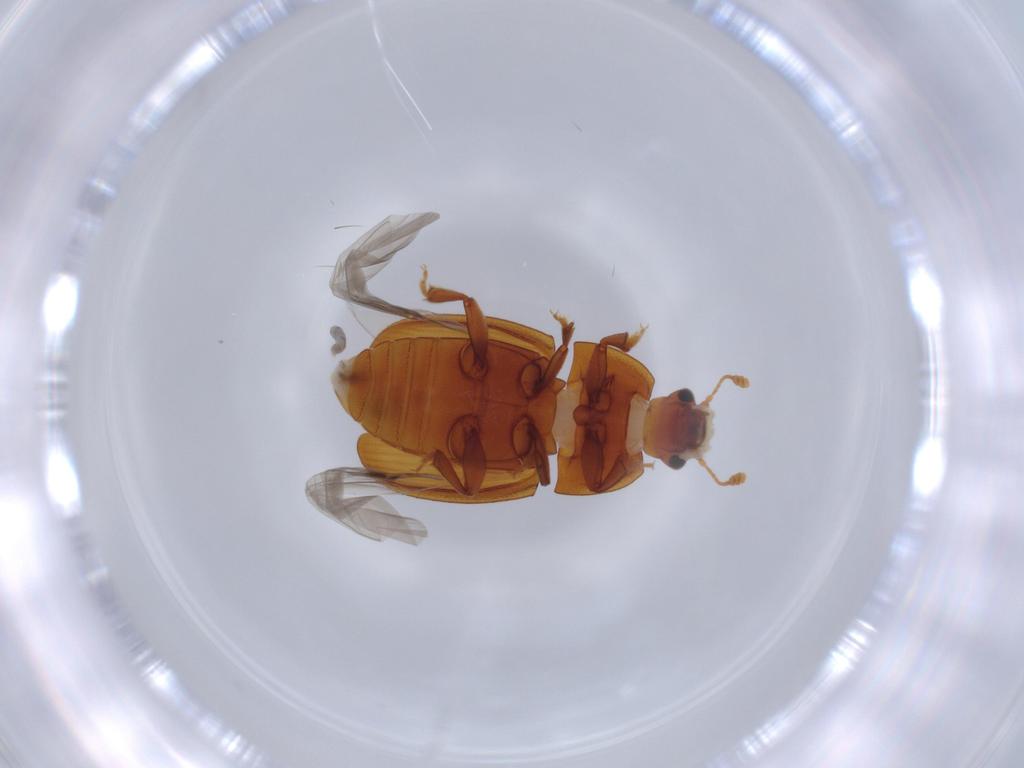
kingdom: Animalia
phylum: Arthropoda
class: Insecta
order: Coleoptera
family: Nitidulidae
